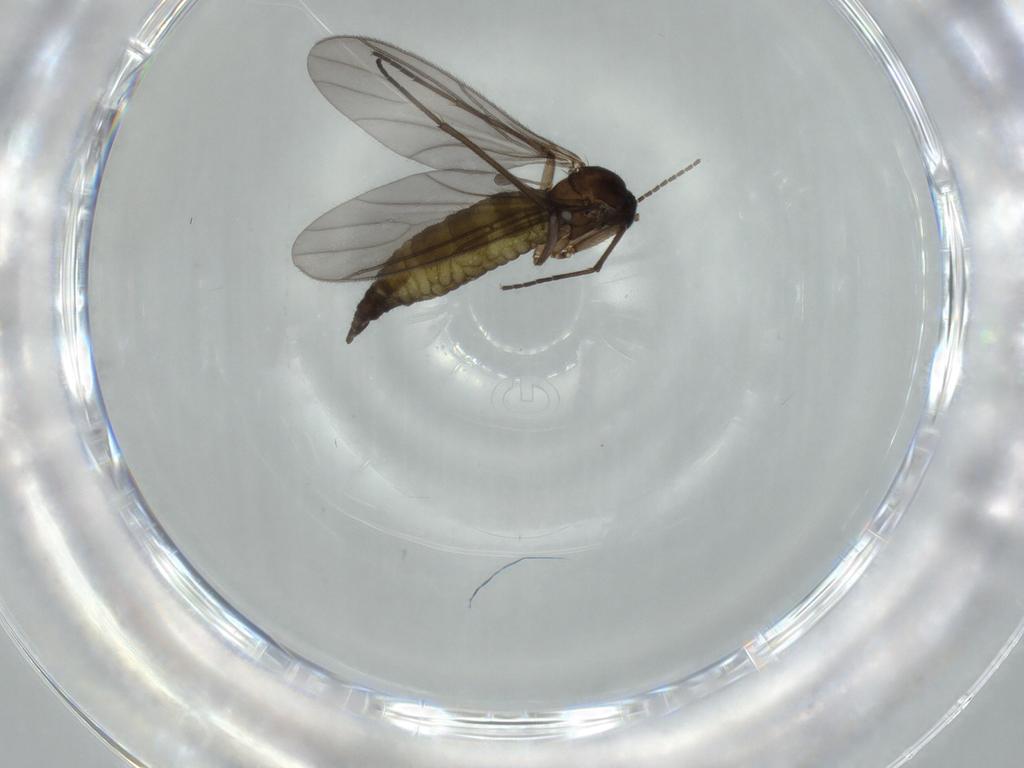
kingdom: Animalia
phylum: Arthropoda
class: Insecta
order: Diptera
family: Sciaridae
